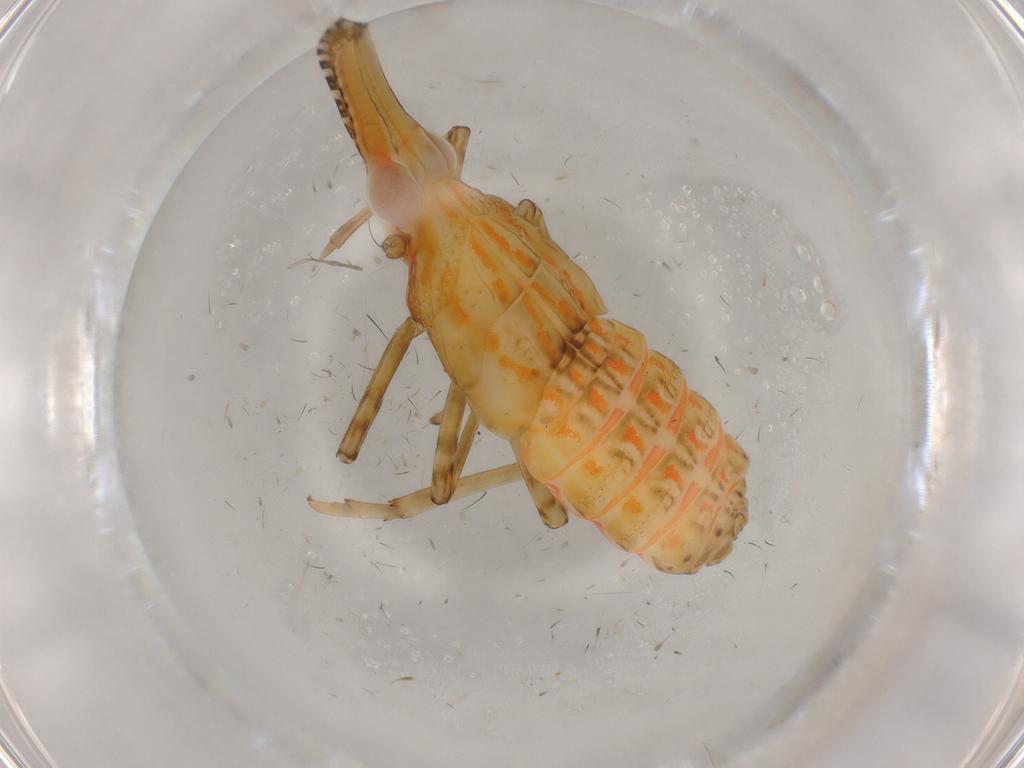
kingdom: Animalia
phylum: Arthropoda
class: Insecta
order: Hemiptera
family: Fulgoroidea_incertae_sedis
